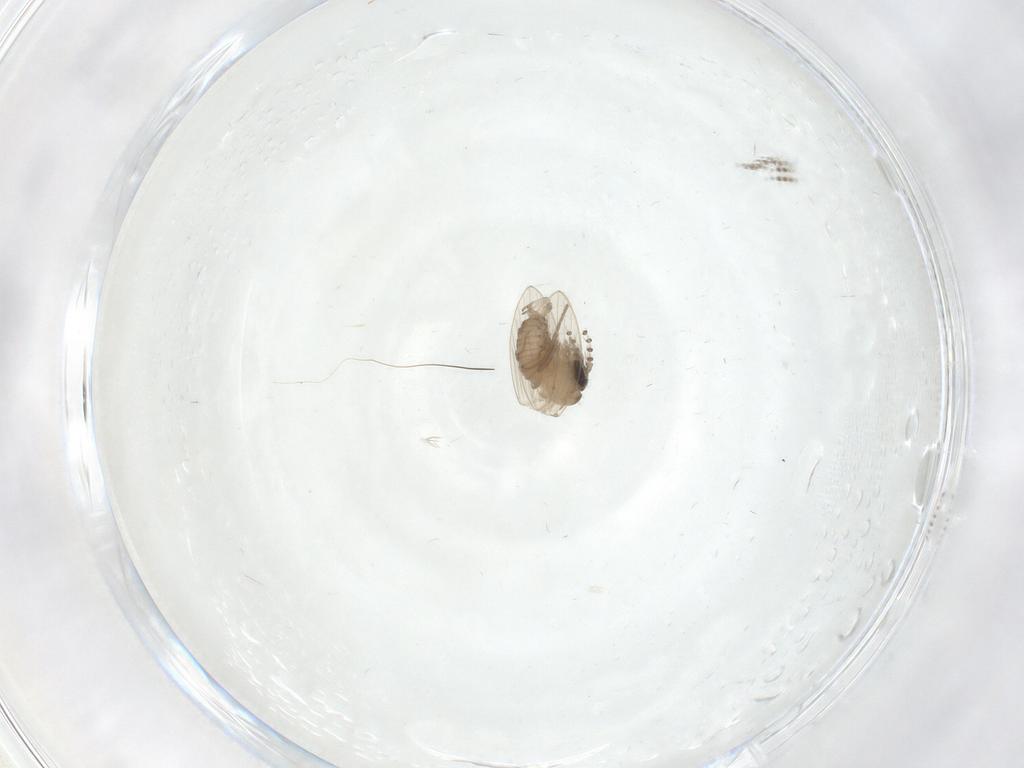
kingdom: Animalia
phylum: Arthropoda
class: Insecta
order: Diptera
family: Psychodidae
